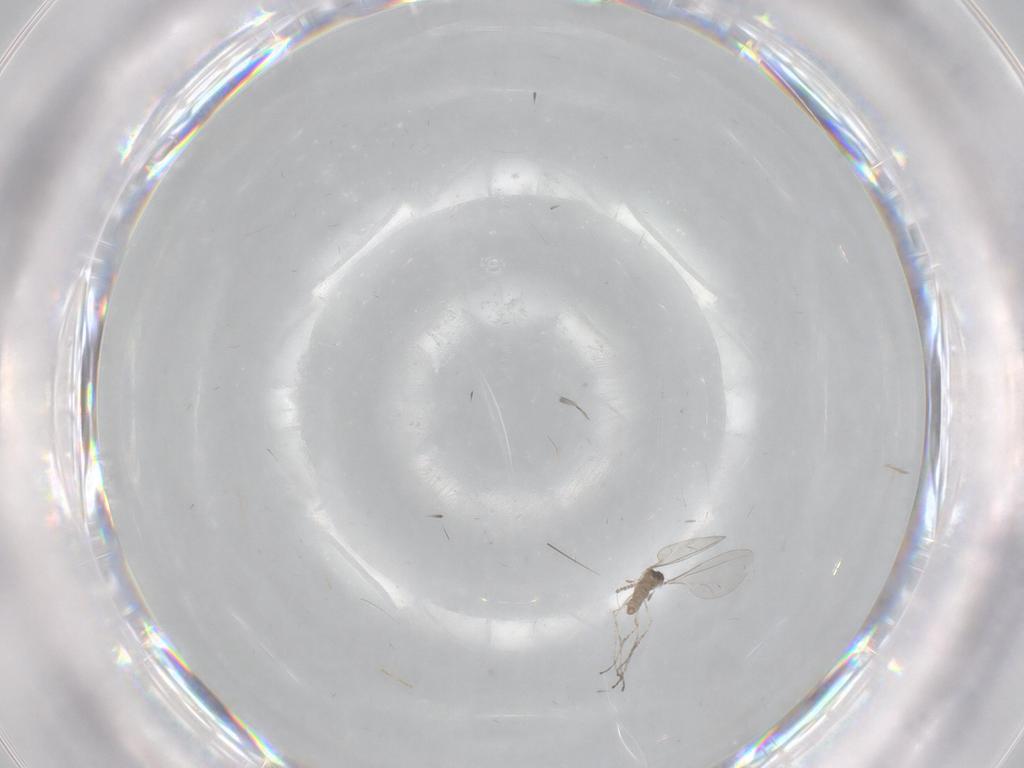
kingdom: Animalia
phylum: Arthropoda
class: Insecta
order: Diptera
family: Cecidomyiidae
